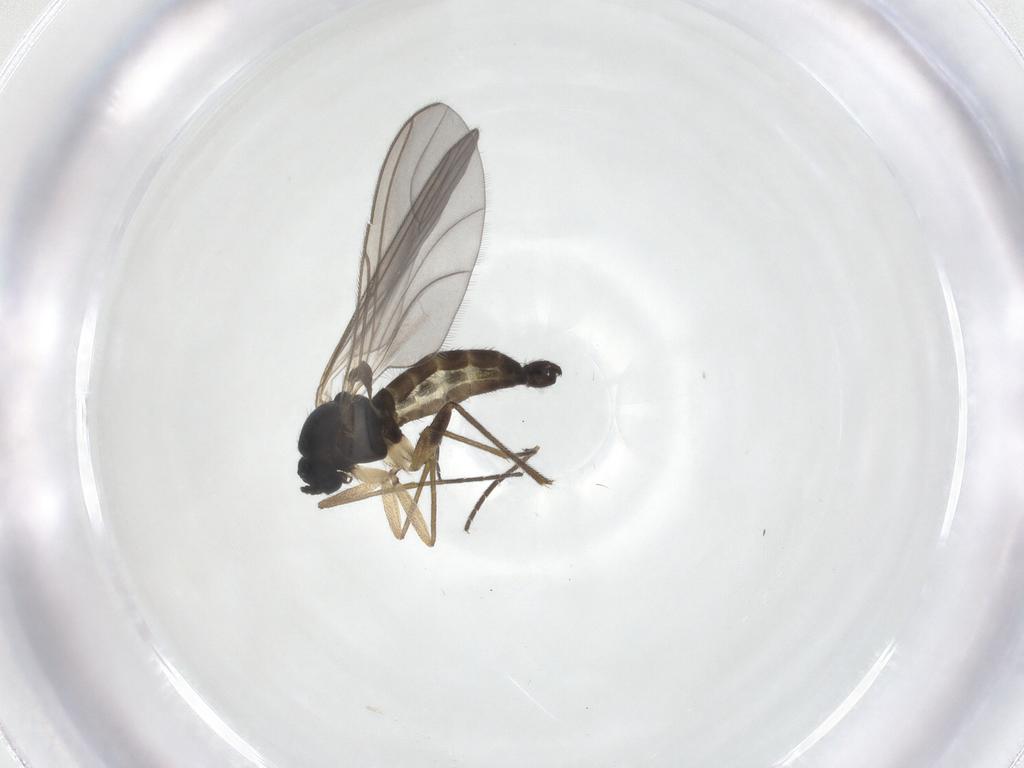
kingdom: Animalia
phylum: Arthropoda
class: Insecta
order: Diptera
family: Sciaridae
